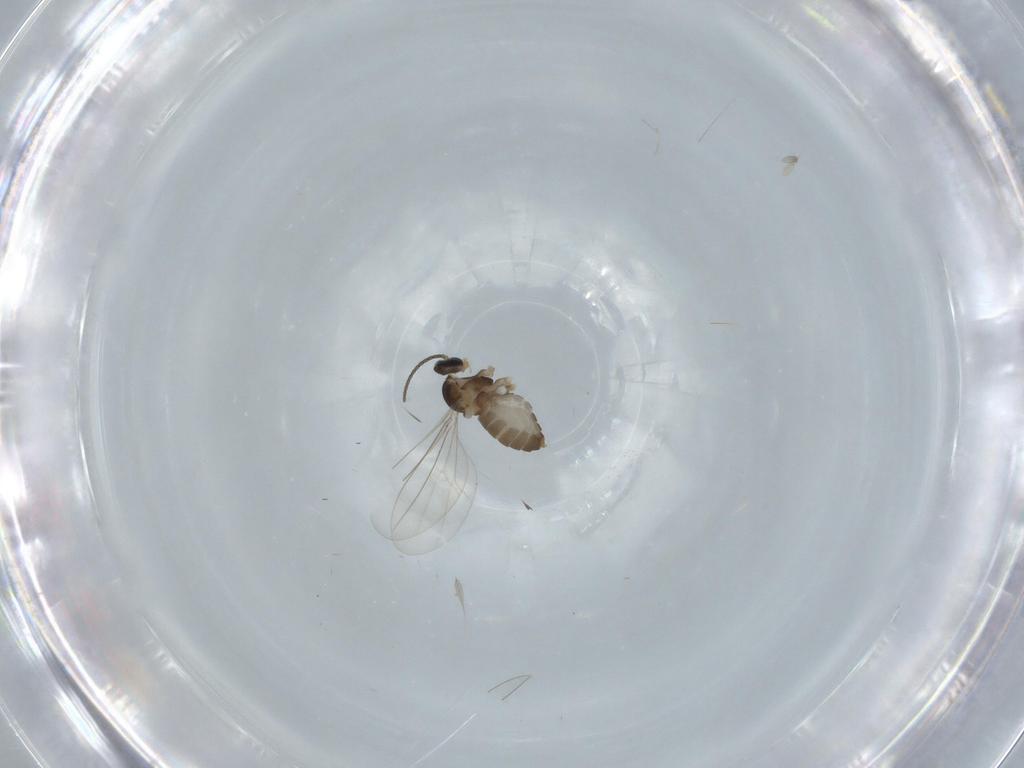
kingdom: Animalia
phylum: Arthropoda
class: Insecta
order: Diptera
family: Cecidomyiidae
